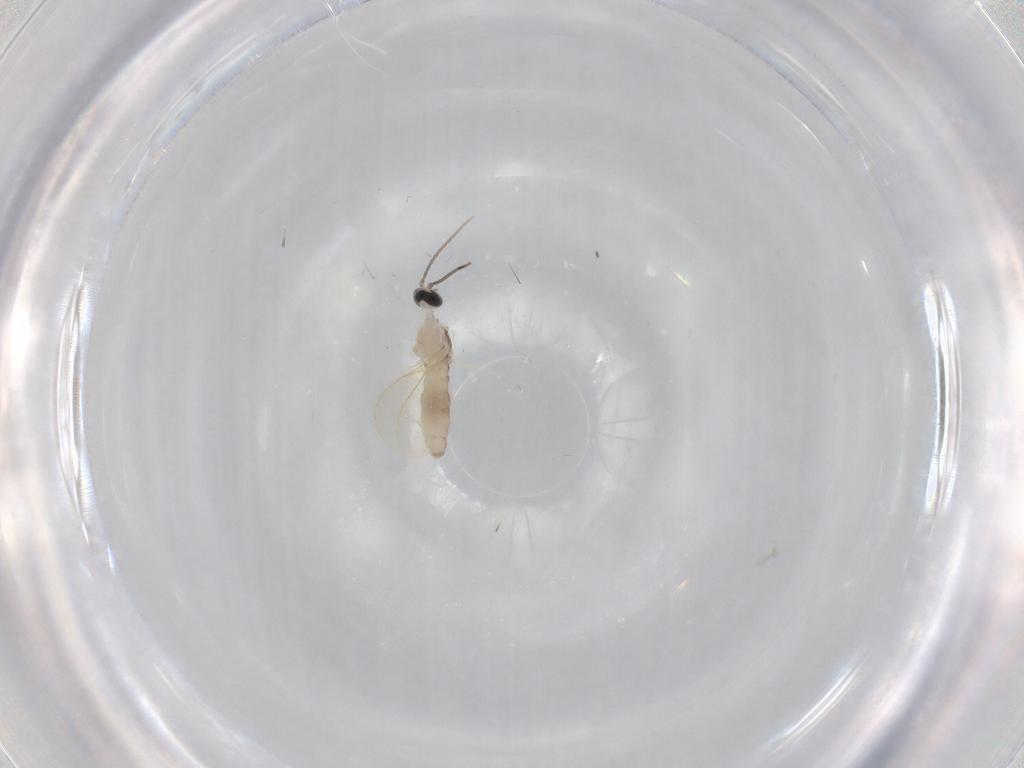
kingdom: Animalia
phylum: Arthropoda
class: Insecta
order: Diptera
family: Cecidomyiidae
